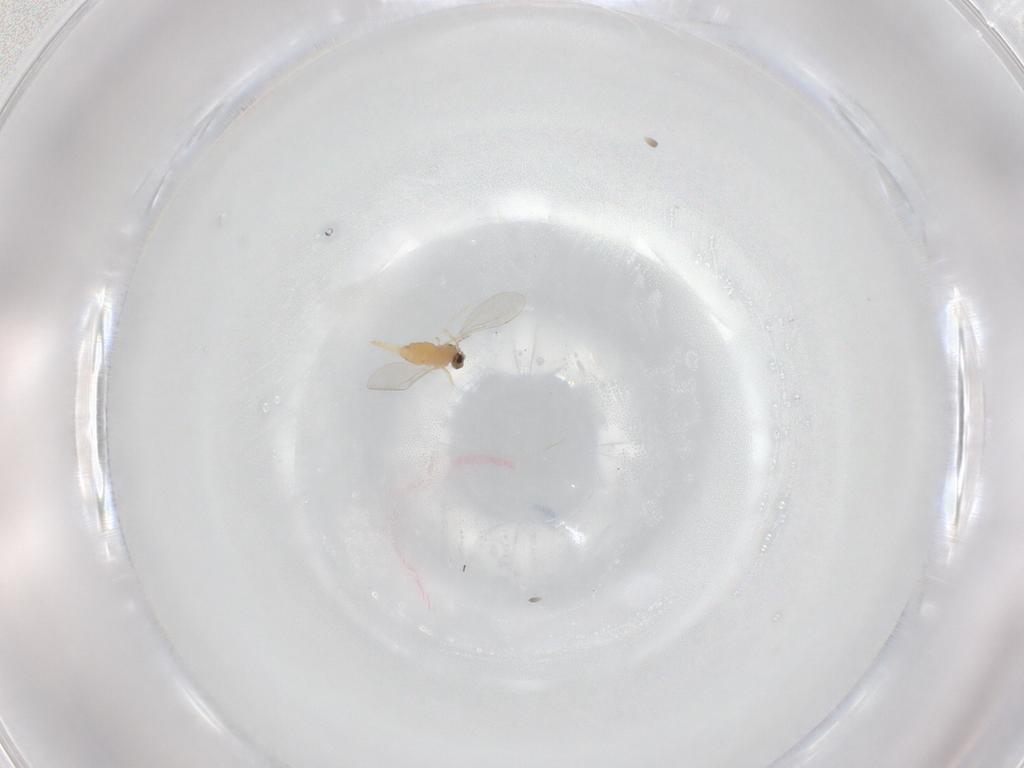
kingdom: Animalia
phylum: Arthropoda
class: Insecta
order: Diptera
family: Cecidomyiidae
